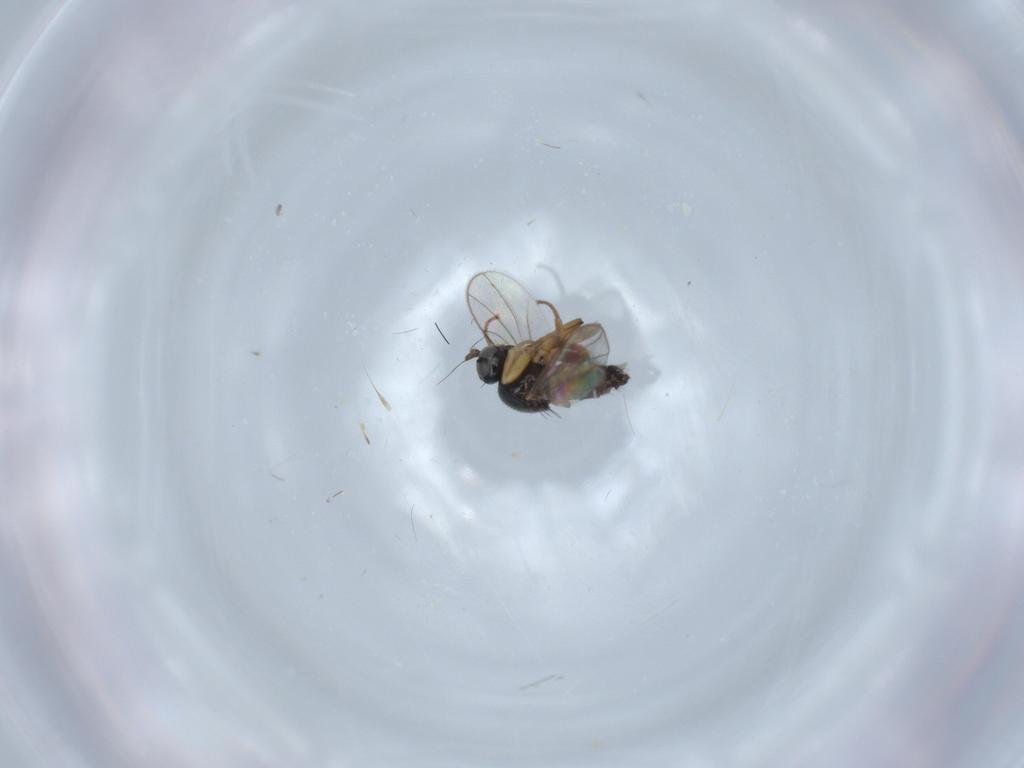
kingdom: Animalia
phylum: Arthropoda
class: Insecta
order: Diptera
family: Hybotidae
